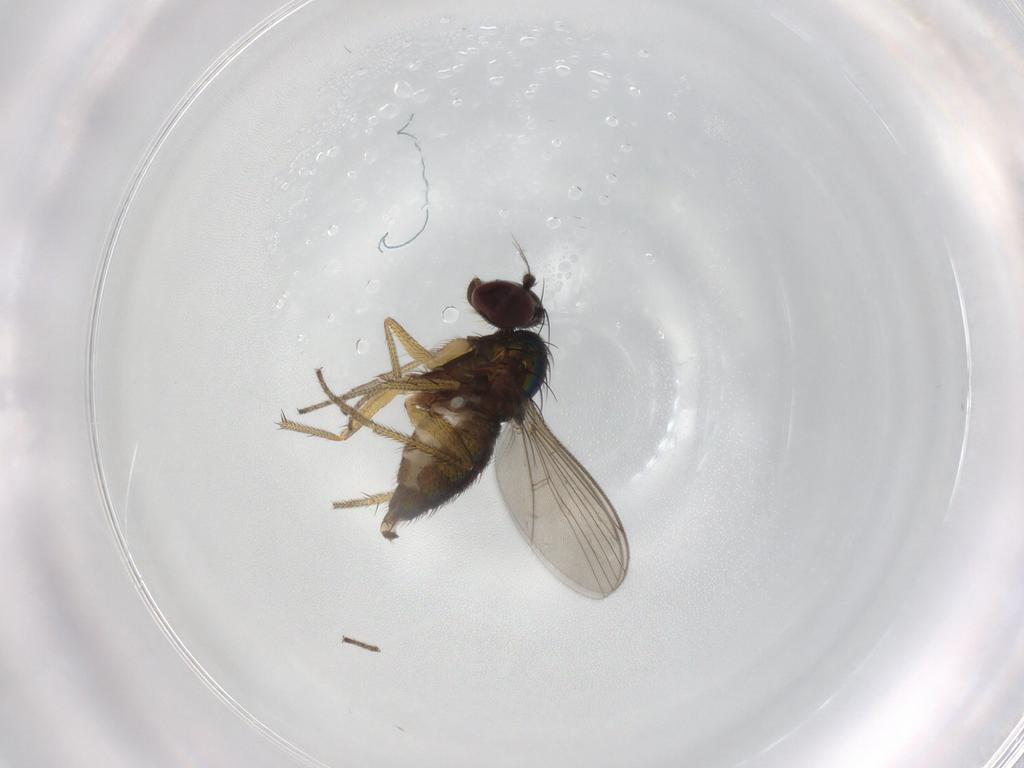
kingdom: Animalia
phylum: Arthropoda
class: Insecta
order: Diptera
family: Dolichopodidae
